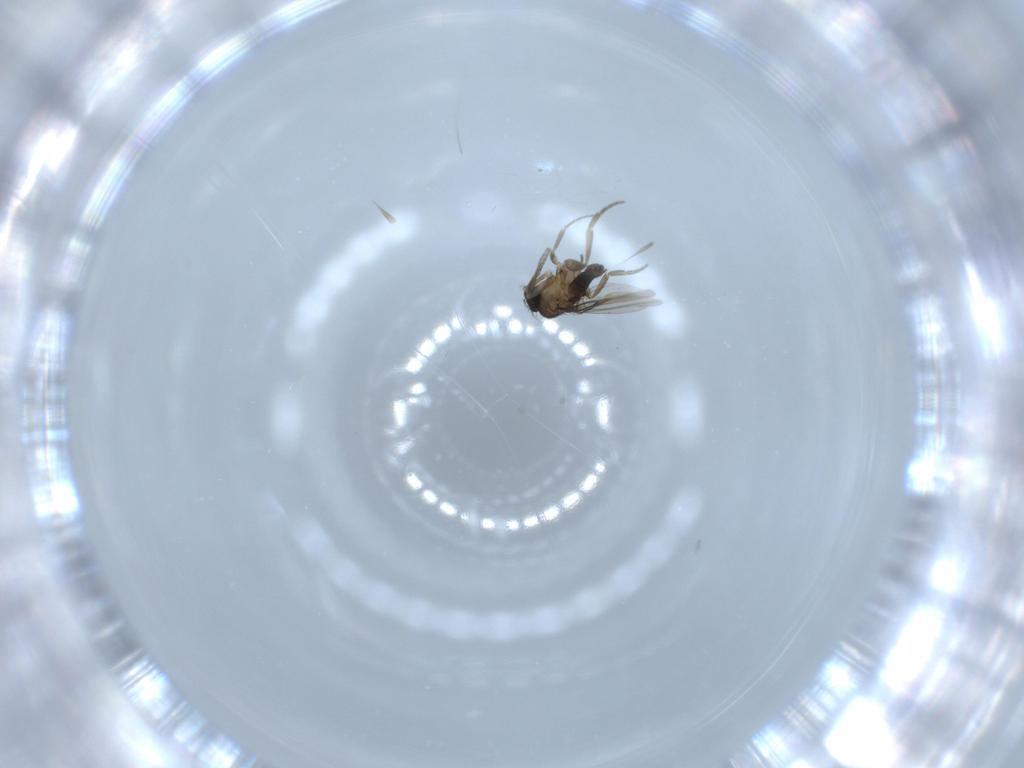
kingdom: Animalia
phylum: Arthropoda
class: Insecta
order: Diptera
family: Phoridae
